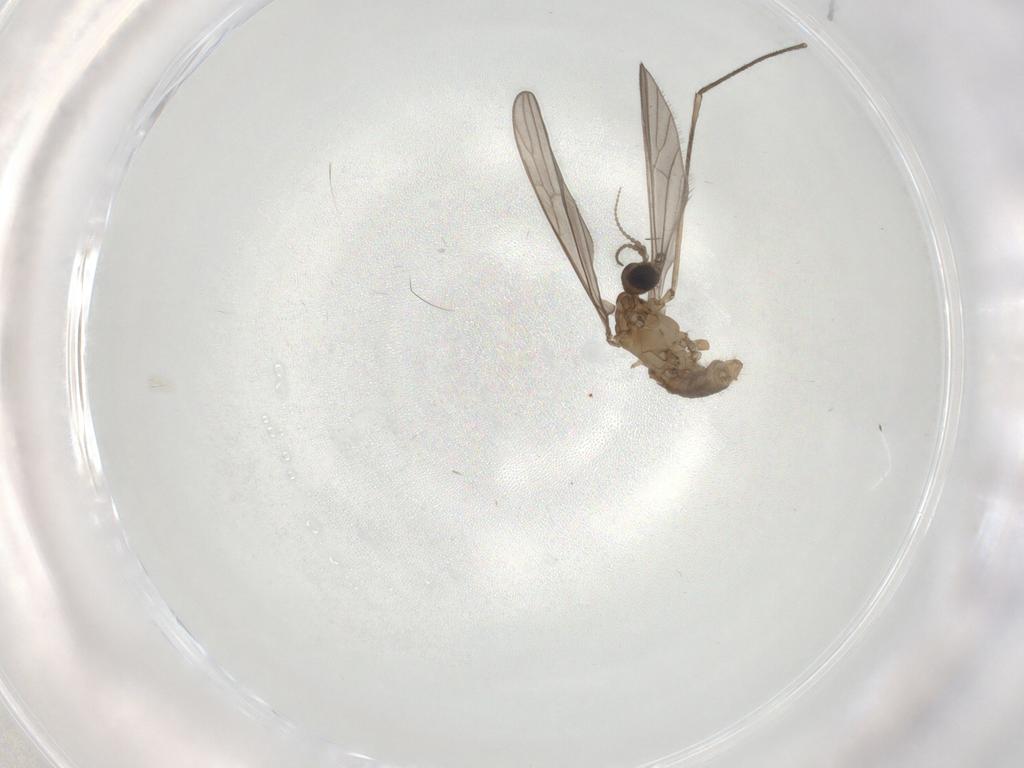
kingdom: Animalia
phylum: Arthropoda
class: Insecta
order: Diptera
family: Limoniidae
